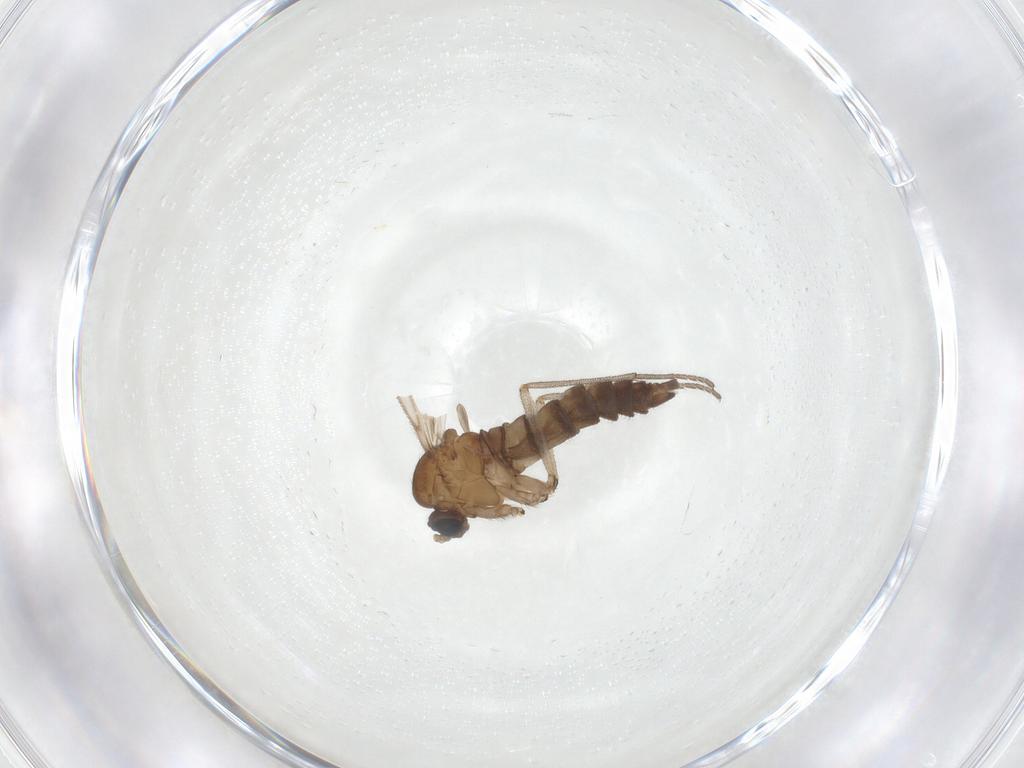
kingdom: Animalia
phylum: Arthropoda
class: Insecta
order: Diptera
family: Sciaridae
